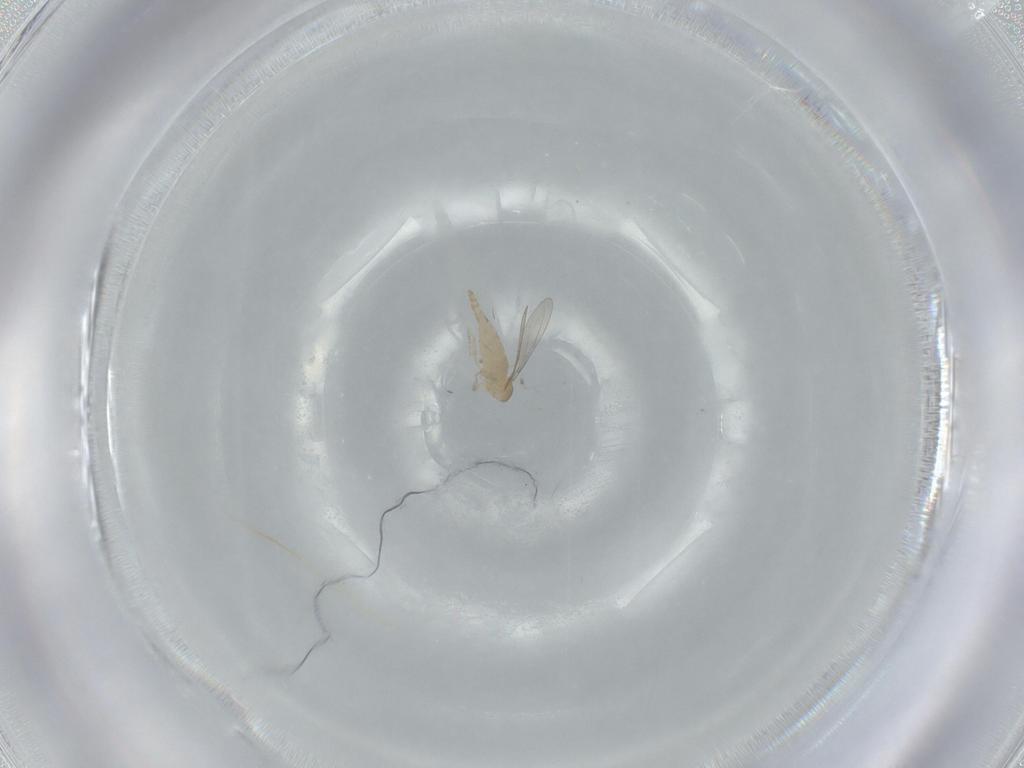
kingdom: Animalia
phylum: Arthropoda
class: Insecta
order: Diptera
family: Cecidomyiidae
